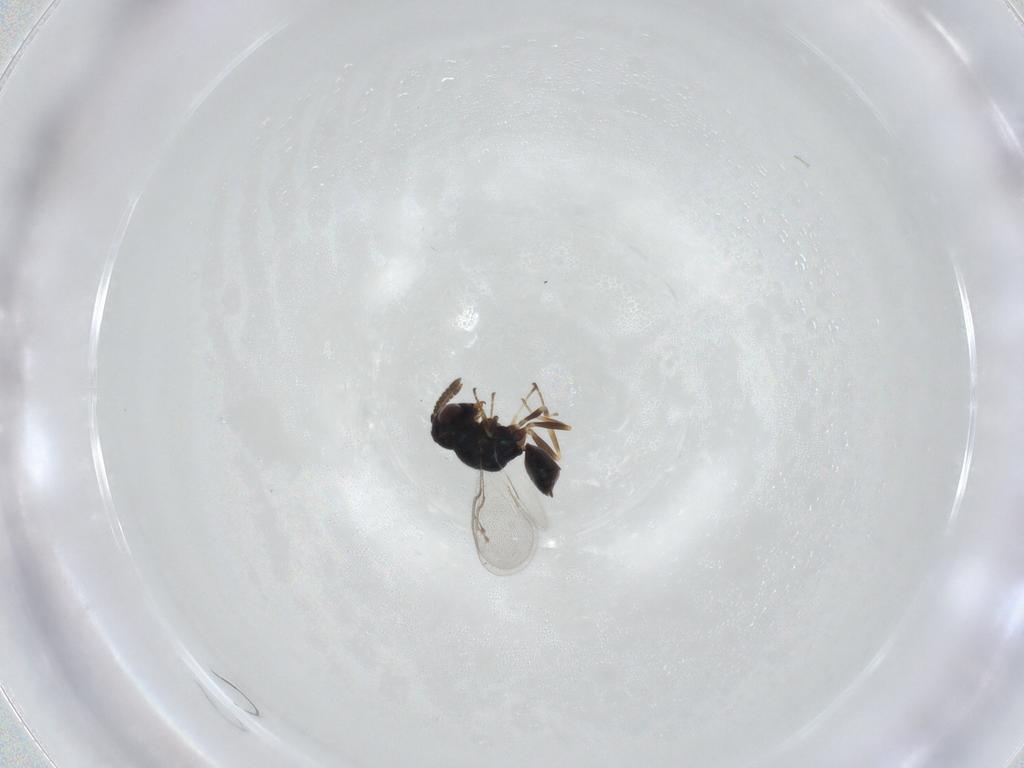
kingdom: Animalia
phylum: Arthropoda
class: Insecta
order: Hymenoptera
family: Pteromalidae
